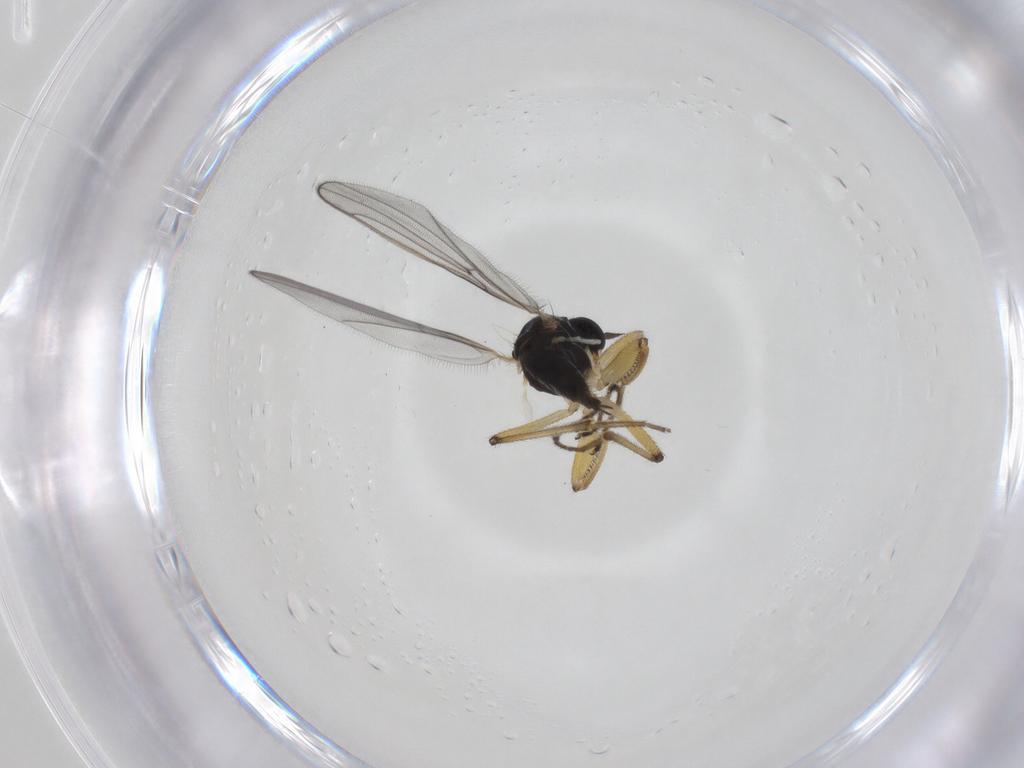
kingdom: Animalia
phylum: Arthropoda
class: Insecta
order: Diptera
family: Hybotidae
